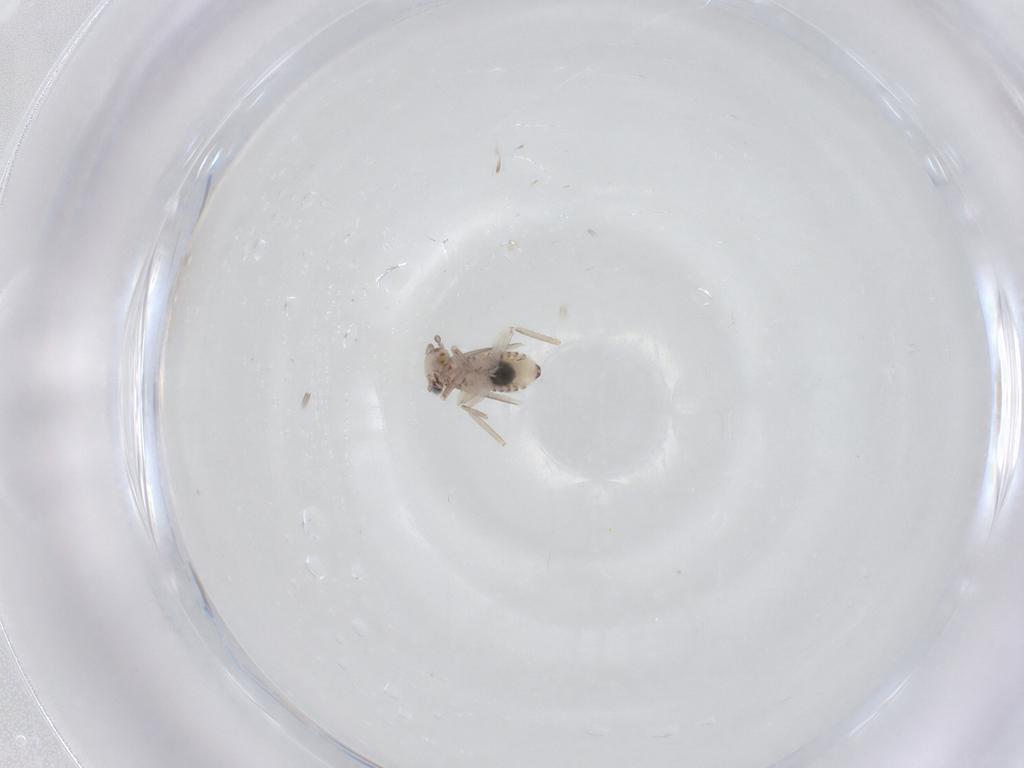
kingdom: Animalia
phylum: Arthropoda
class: Insecta
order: Psocodea
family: Lepidopsocidae
